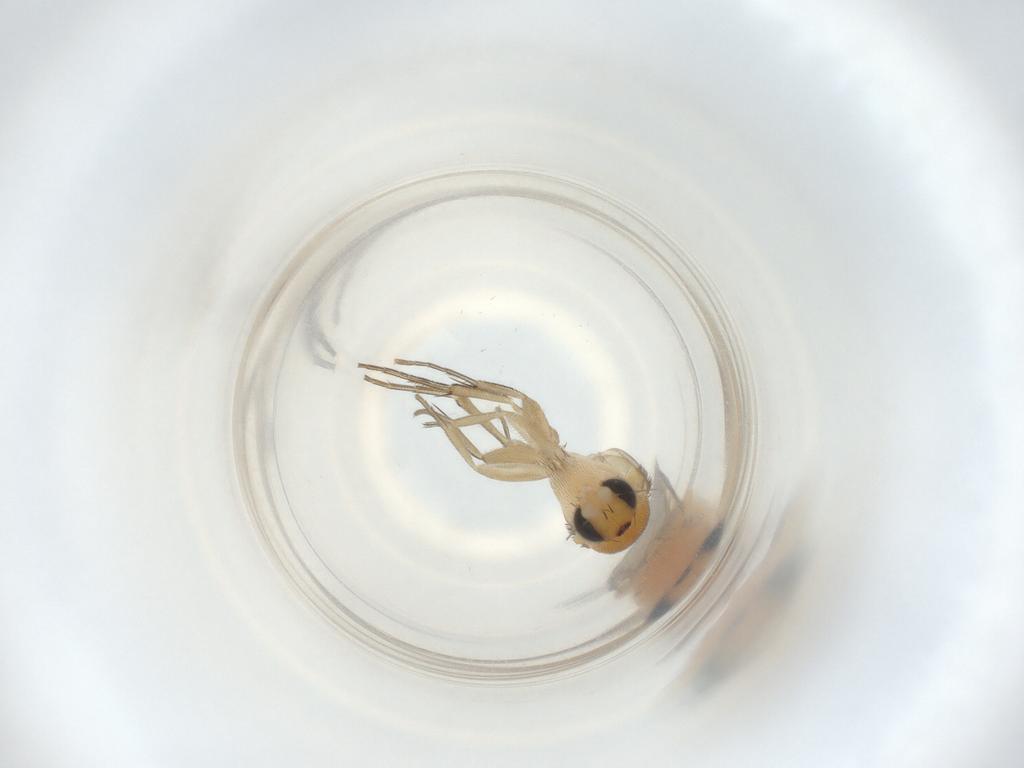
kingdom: Animalia
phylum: Arthropoda
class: Insecta
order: Diptera
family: Phoridae
